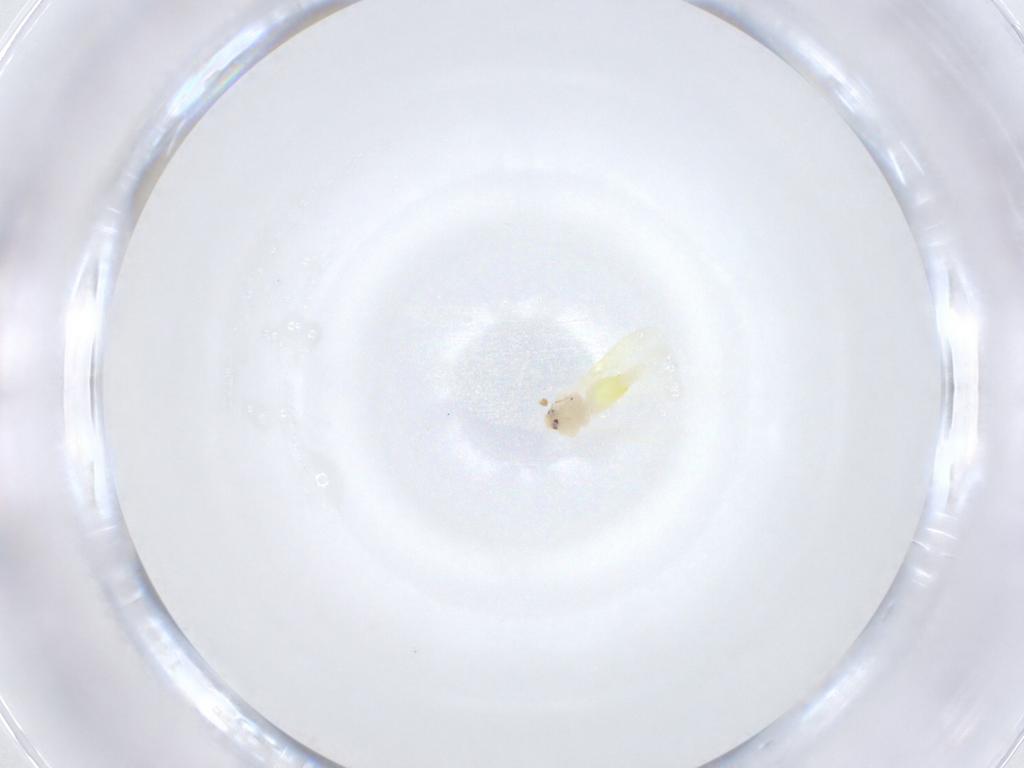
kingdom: Animalia
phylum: Arthropoda
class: Insecta
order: Hemiptera
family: Aleyrodidae
